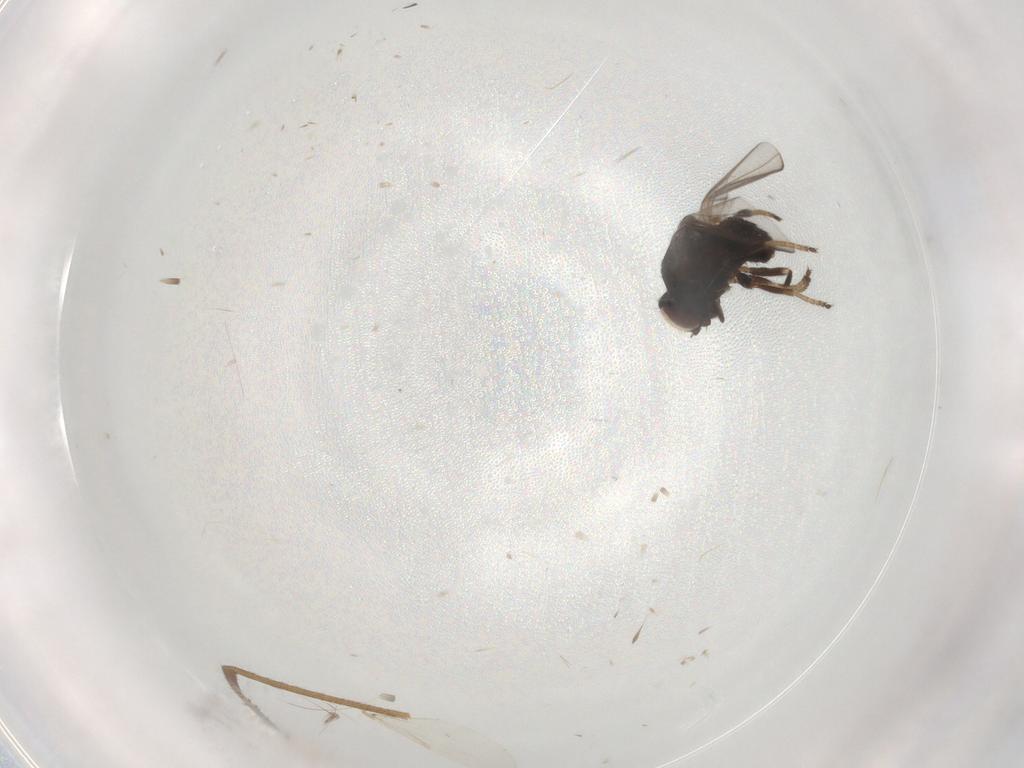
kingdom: Animalia
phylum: Arthropoda
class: Insecta
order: Diptera
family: Chloropidae
